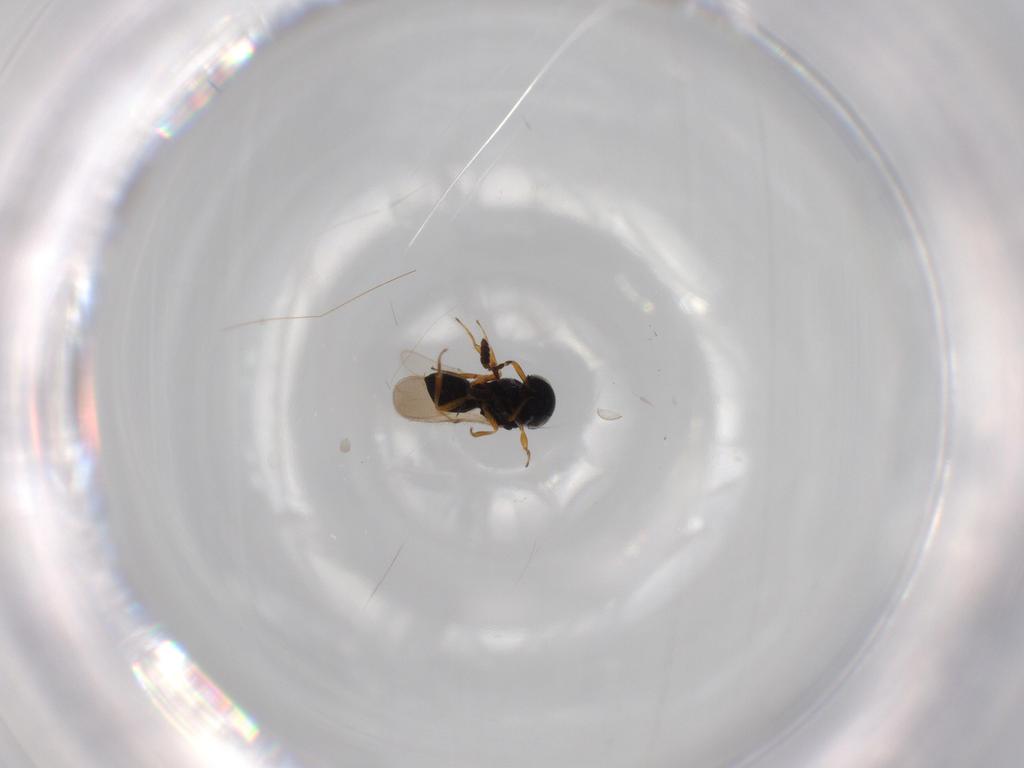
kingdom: Animalia
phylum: Arthropoda
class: Insecta
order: Hymenoptera
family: Scelionidae
